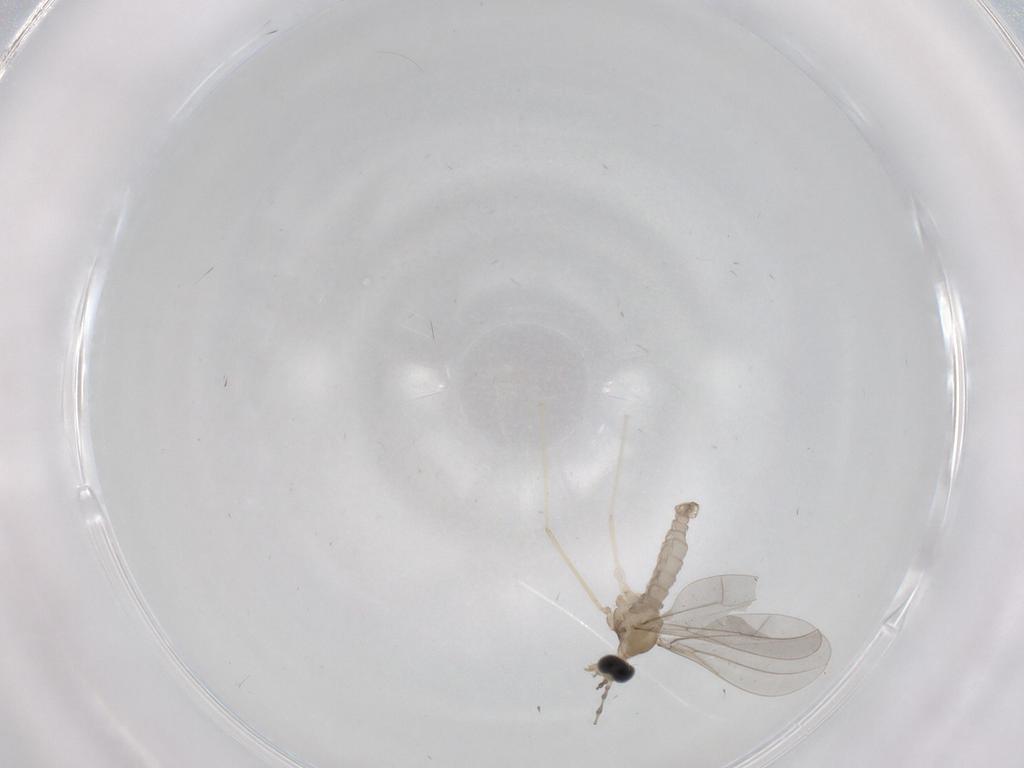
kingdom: Animalia
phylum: Arthropoda
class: Insecta
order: Diptera
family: Cecidomyiidae
